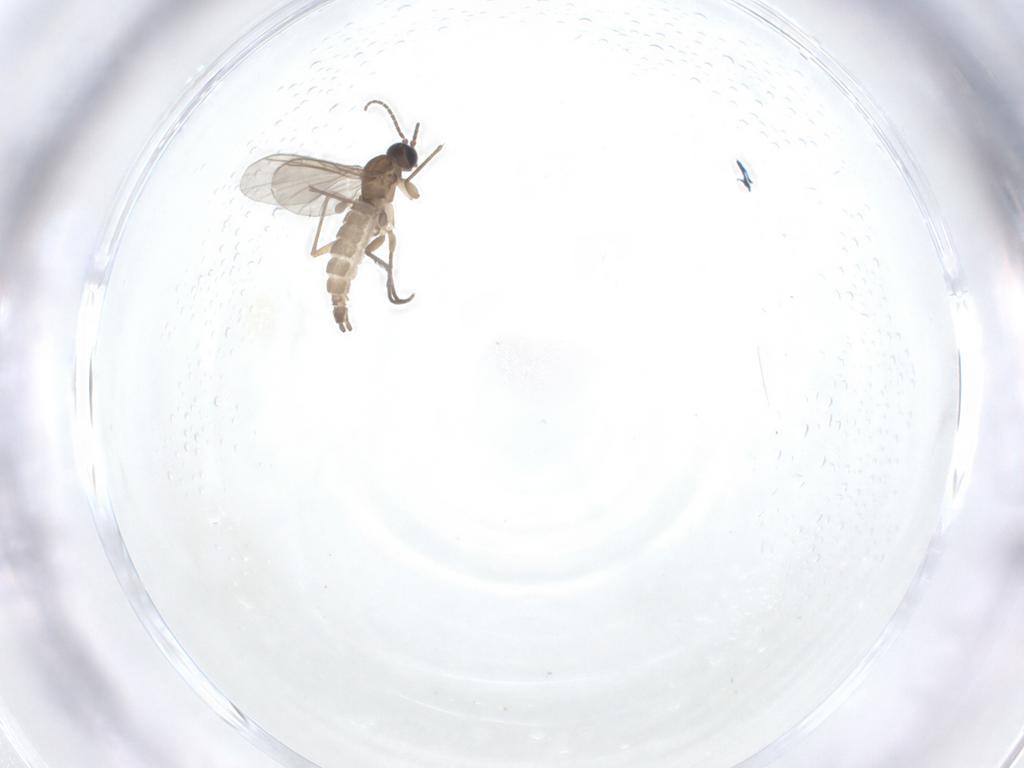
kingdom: Animalia
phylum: Arthropoda
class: Insecta
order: Diptera
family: Sciaridae
